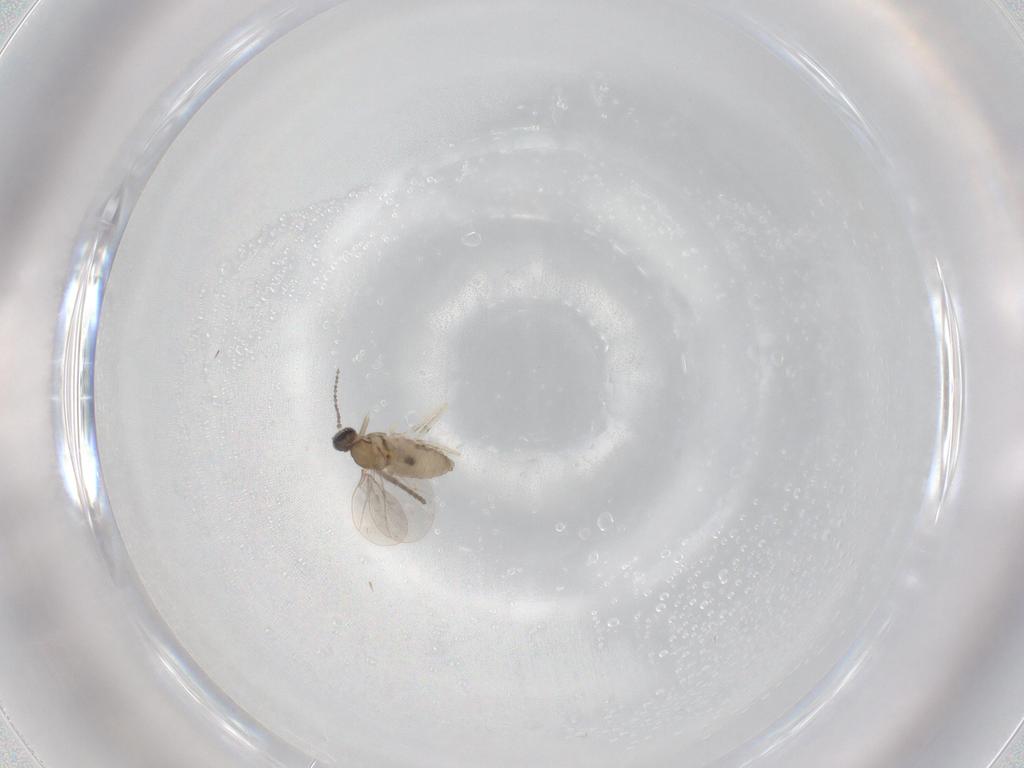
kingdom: Animalia
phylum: Arthropoda
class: Insecta
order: Diptera
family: Cecidomyiidae
